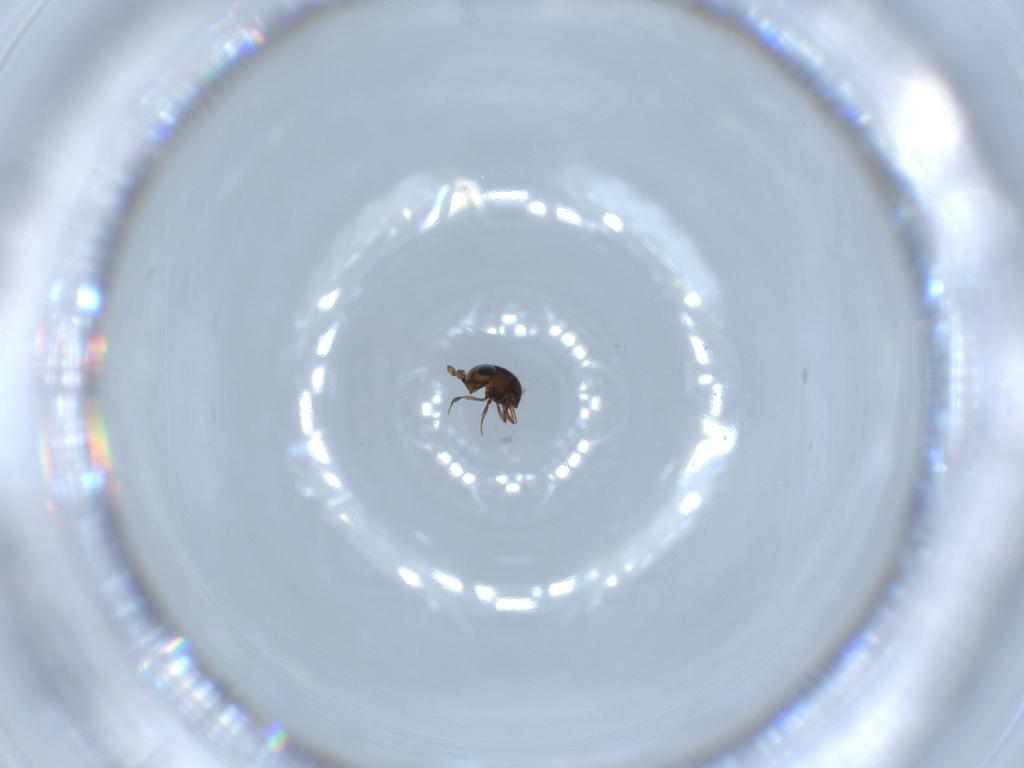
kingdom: Animalia
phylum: Arthropoda
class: Insecta
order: Hymenoptera
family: Scelionidae
